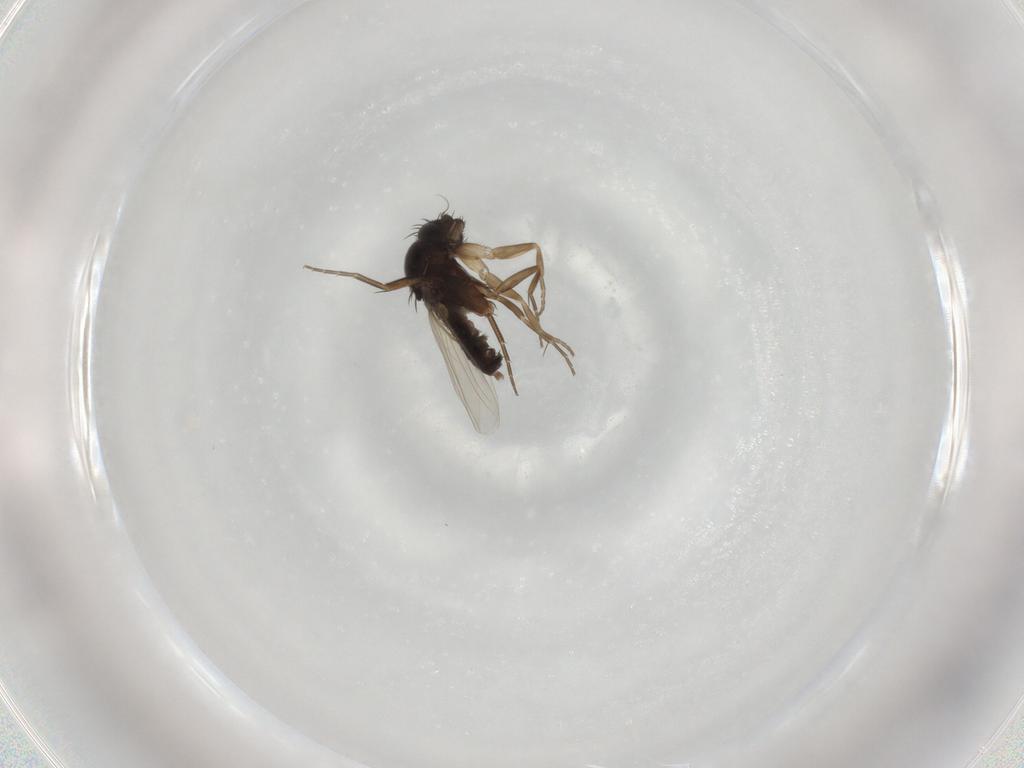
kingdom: Animalia
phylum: Arthropoda
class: Insecta
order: Diptera
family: Phoridae
